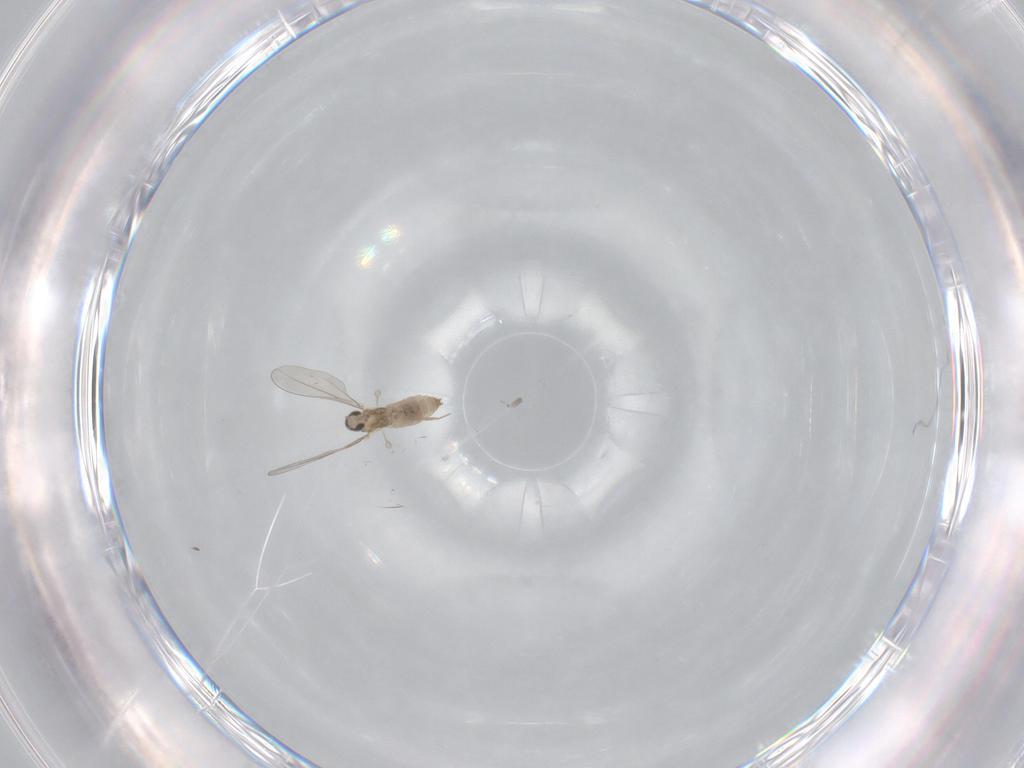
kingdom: Animalia
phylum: Arthropoda
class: Insecta
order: Diptera
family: Cecidomyiidae
